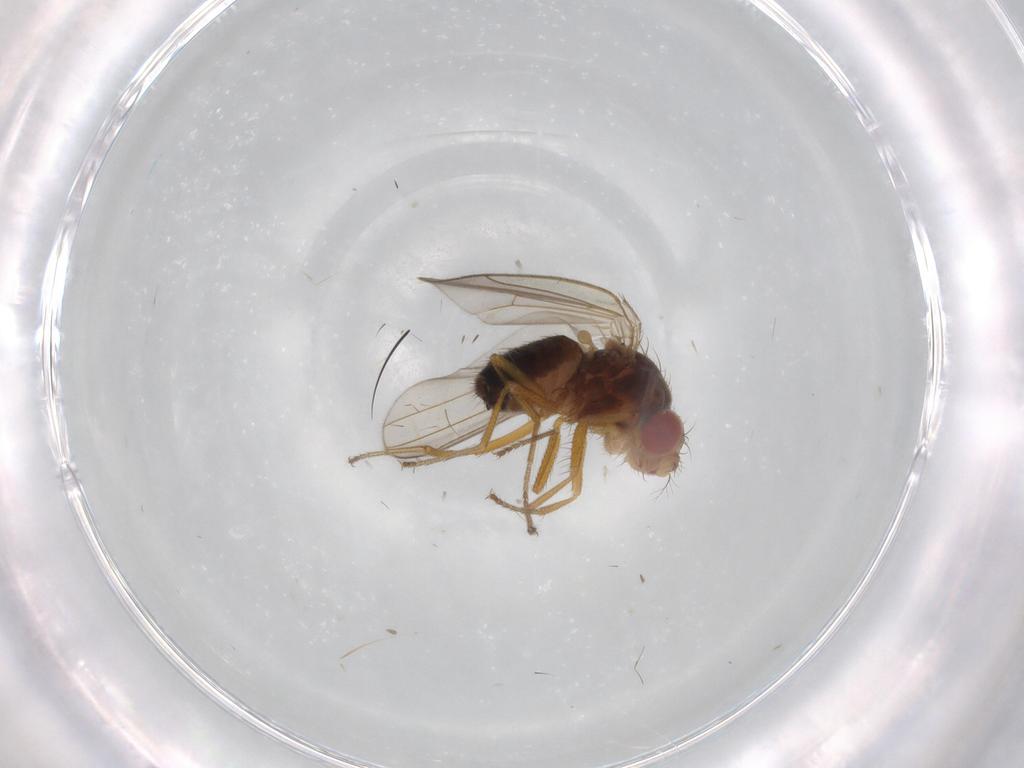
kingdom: Animalia
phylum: Arthropoda
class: Insecta
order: Diptera
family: Drosophilidae
